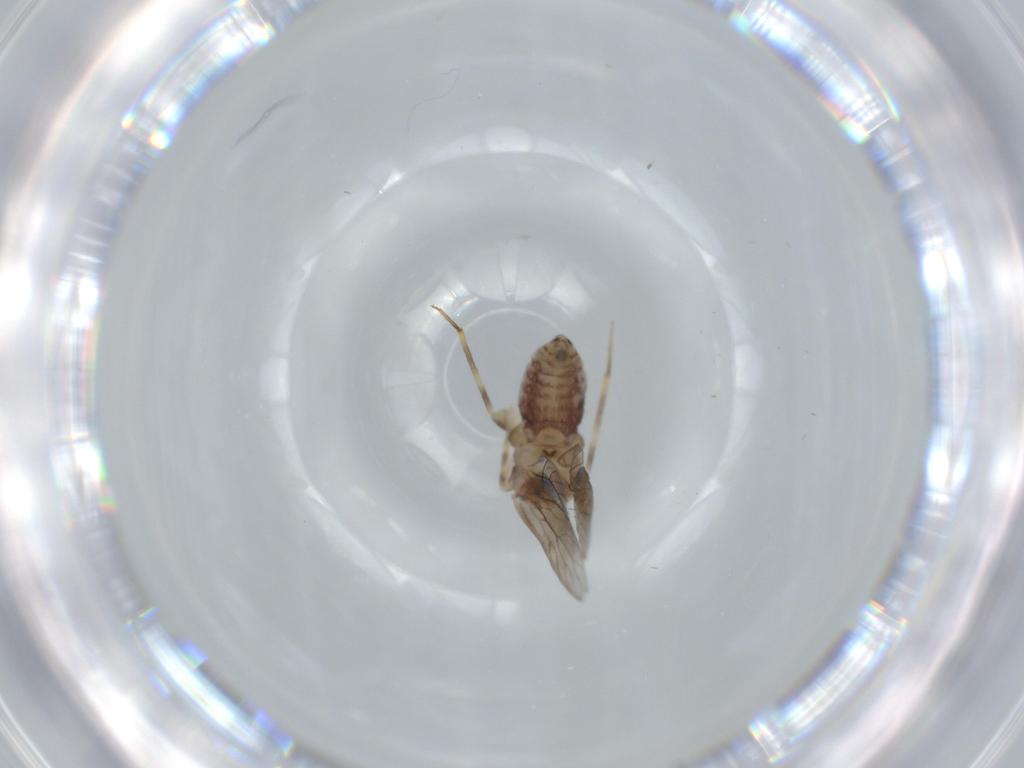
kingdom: Animalia
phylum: Arthropoda
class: Insecta
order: Psocodea
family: Lepidopsocidae
